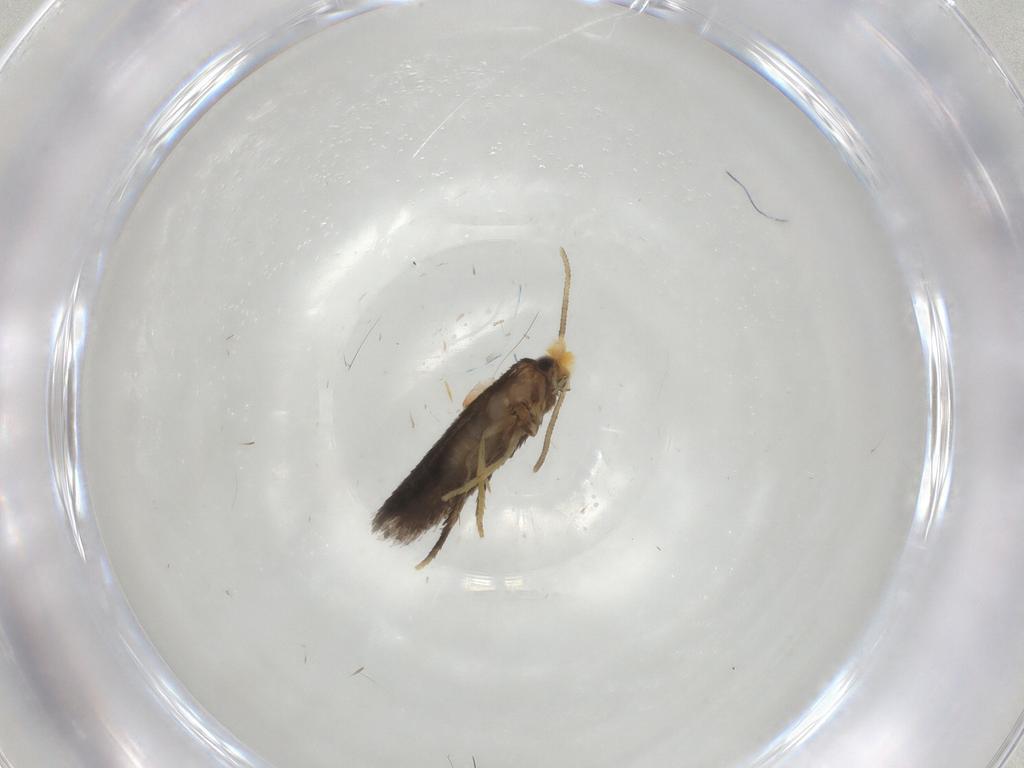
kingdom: Animalia
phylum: Arthropoda
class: Insecta
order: Lepidoptera
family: Nepticulidae
